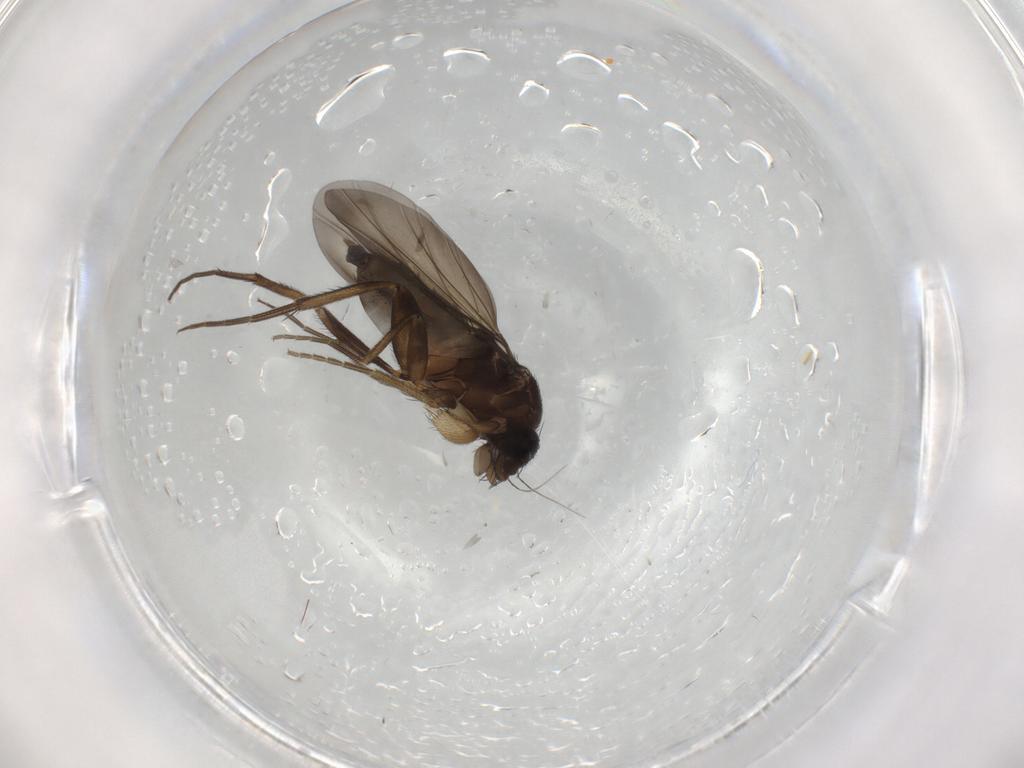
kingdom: Animalia
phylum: Arthropoda
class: Insecta
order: Diptera
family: Phoridae
